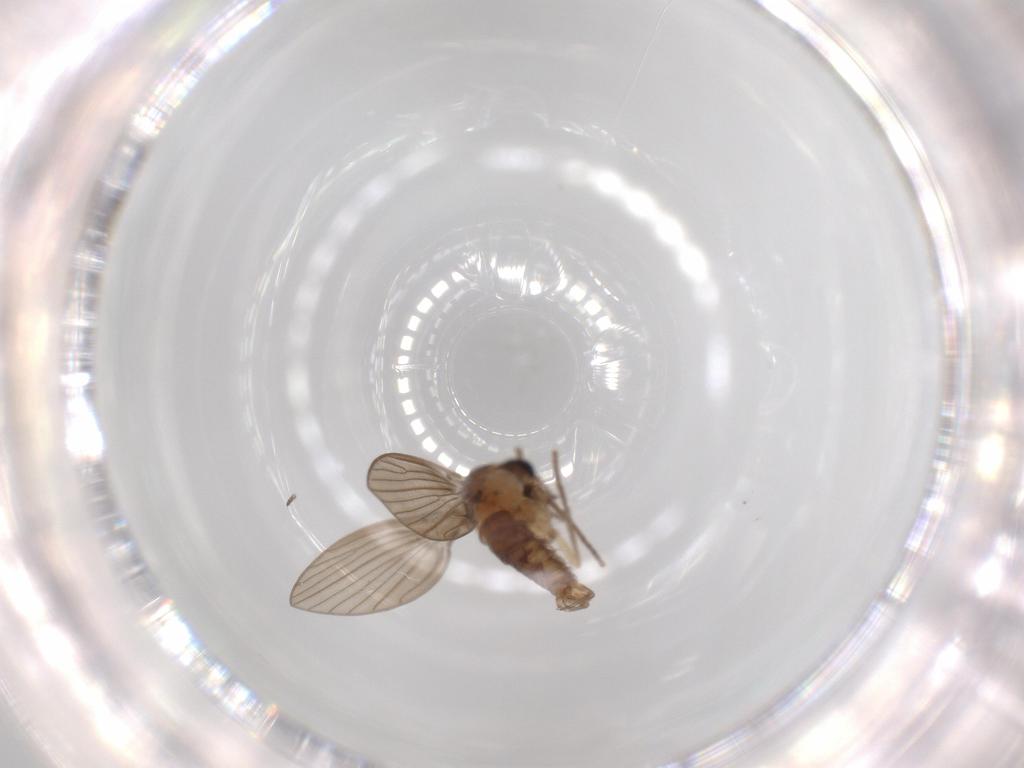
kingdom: Animalia
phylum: Arthropoda
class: Insecta
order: Diptera
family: Psychodidae
